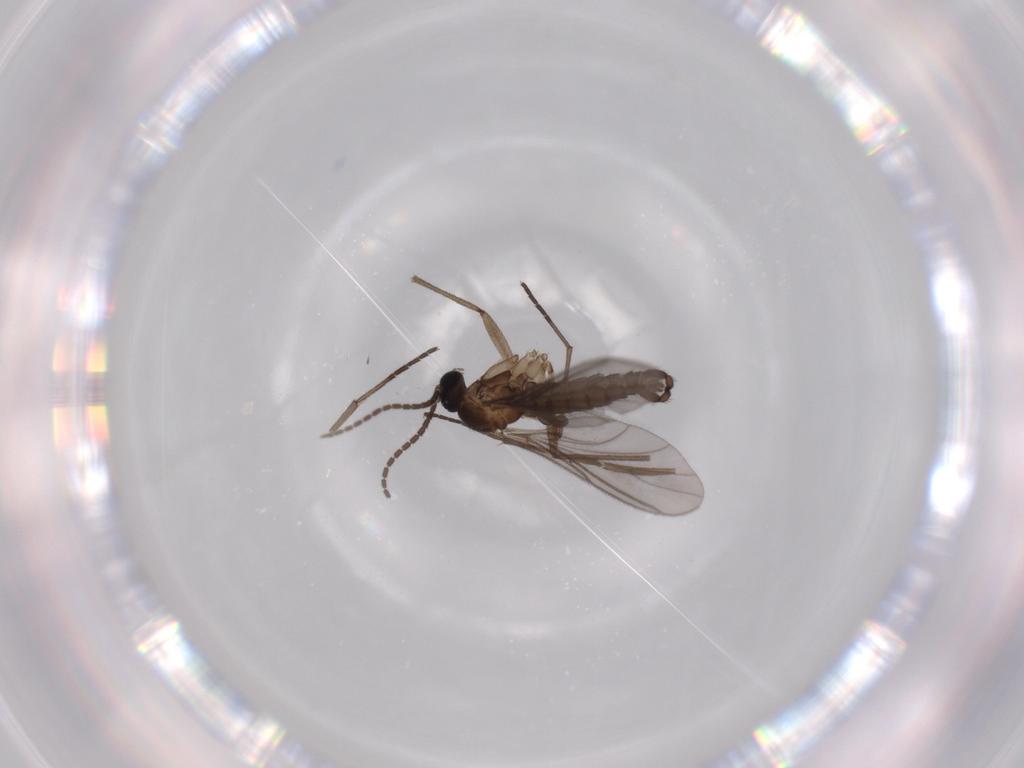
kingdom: Animalia
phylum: Arthropoda
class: Insecta
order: Diptera
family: Sciaridae
